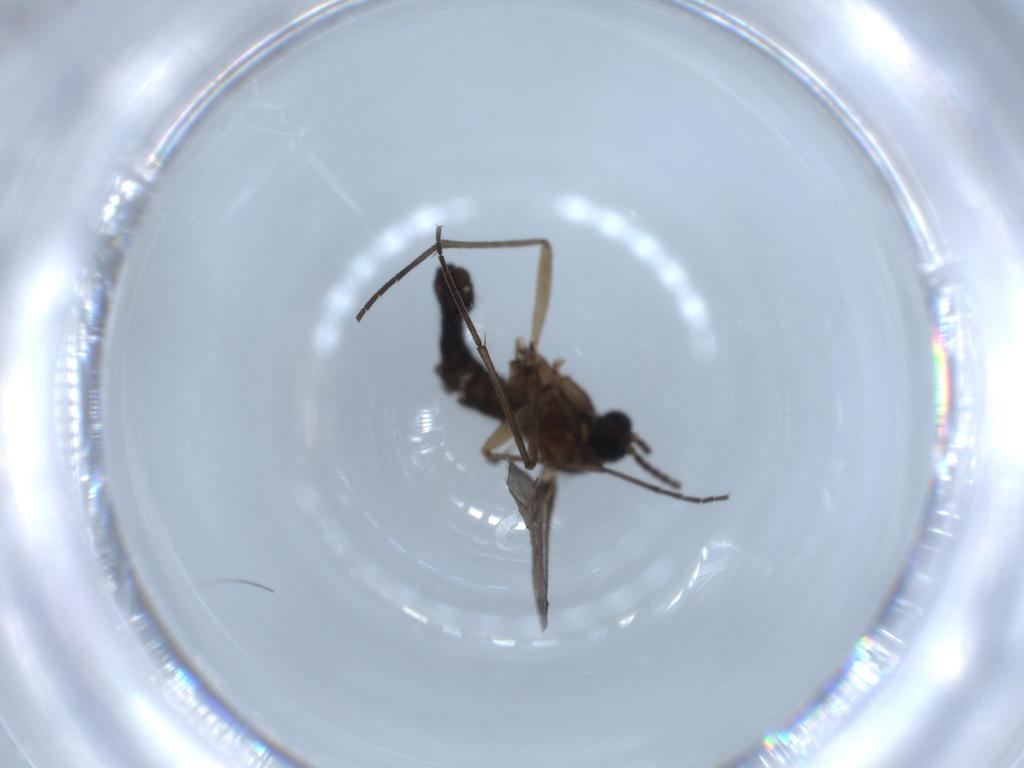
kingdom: Animalia
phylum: Arthropoda
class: Insecta
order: Diptera
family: Sciaridae
